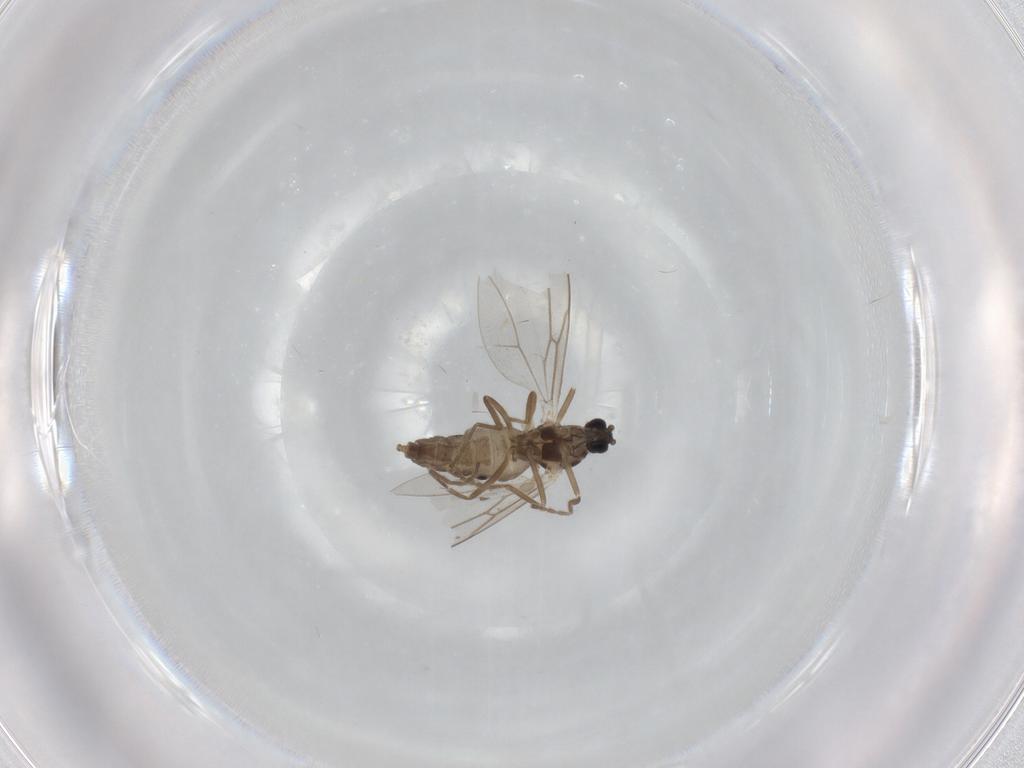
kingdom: Animalia
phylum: Arthropoda
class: Insecta
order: Diptera
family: Cecidomyiidae
